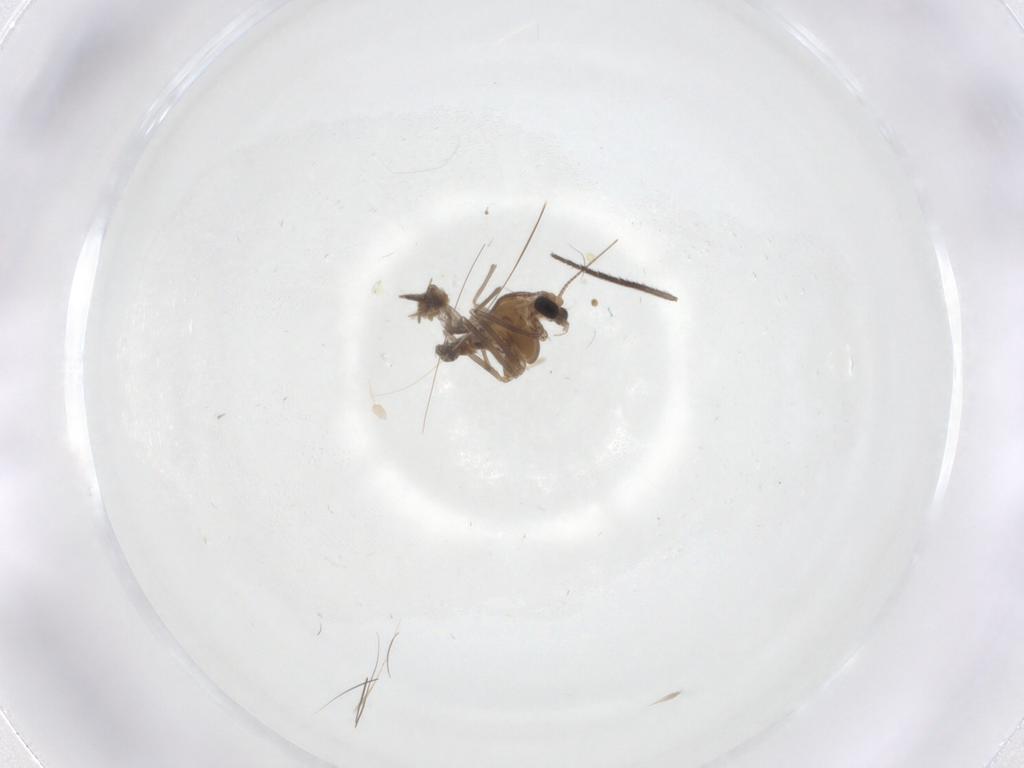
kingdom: Animalia
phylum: Arthropoda
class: Insecta
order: Diptera
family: Chironomidae
